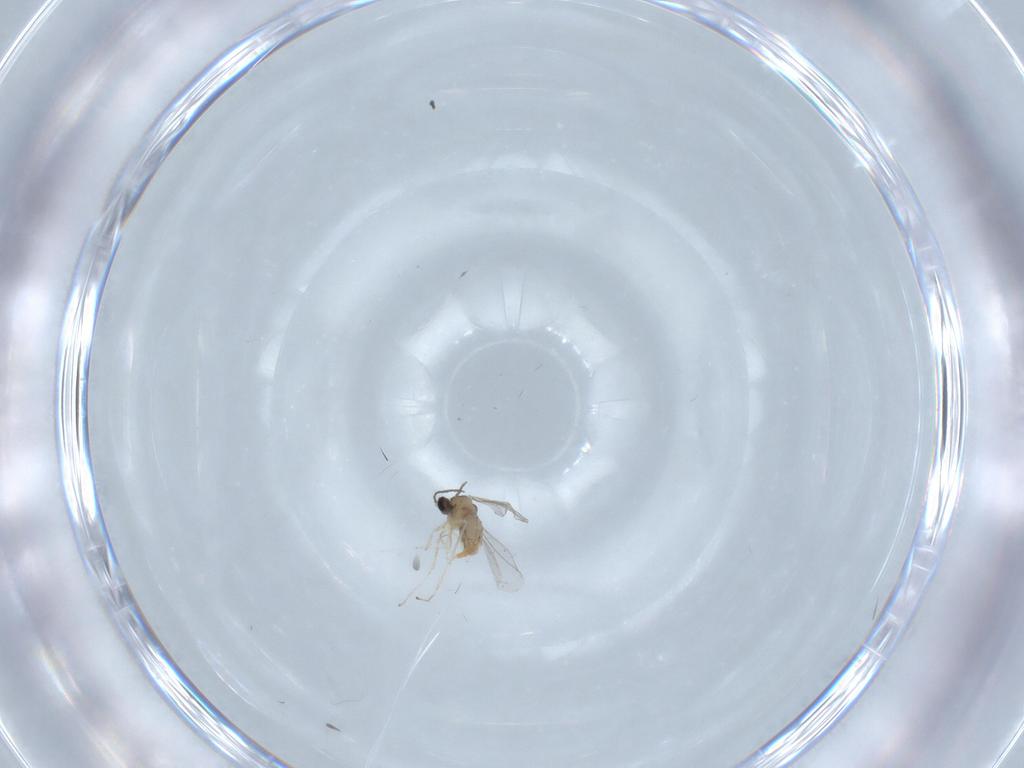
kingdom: Animalia
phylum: Arthropoda
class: Insecta
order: Diptera
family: Cecidomyiidae
